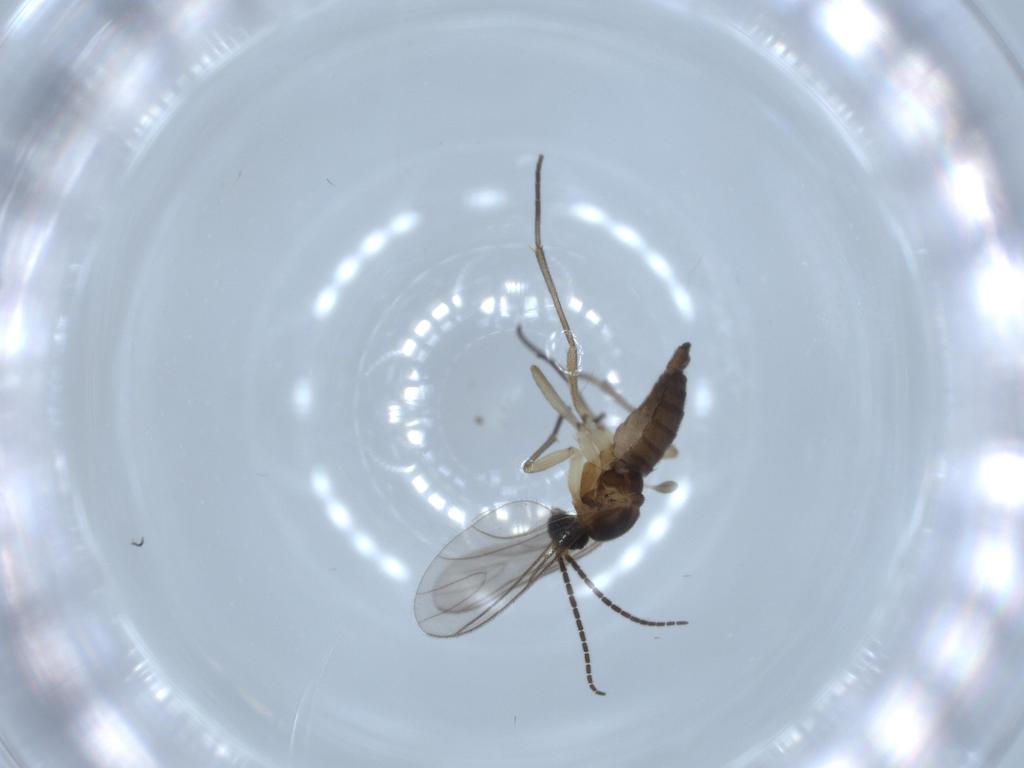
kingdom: Animalia
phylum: Arthropoda
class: Insecta
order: Diptera
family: Sciaridae
